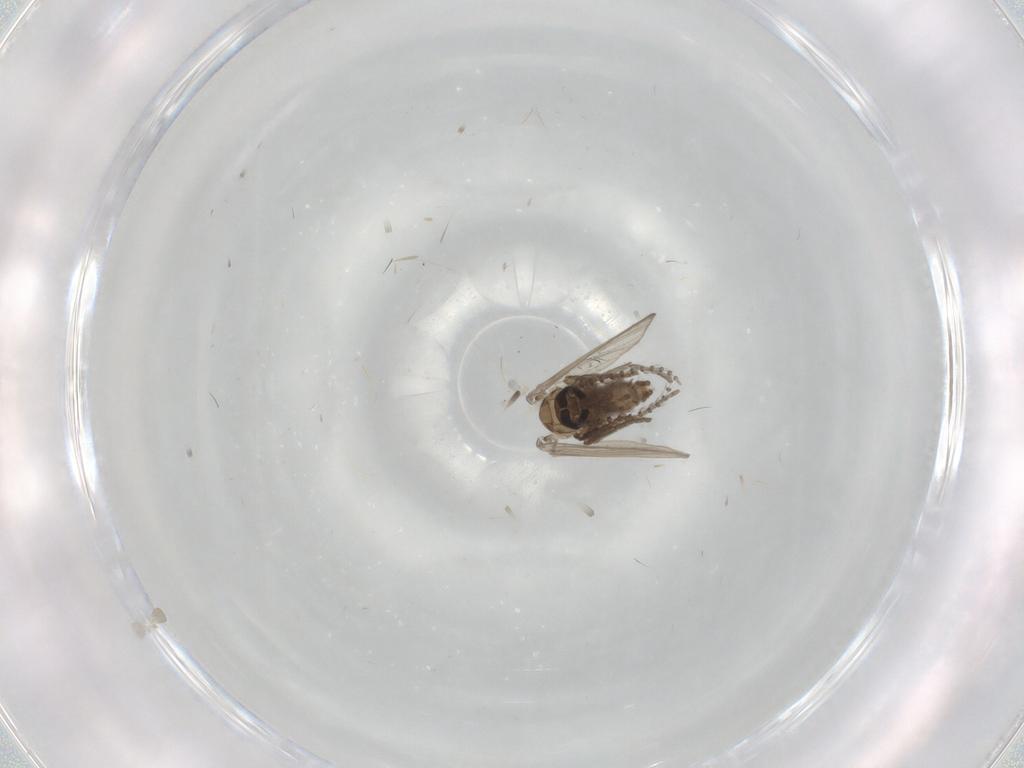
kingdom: Animalia
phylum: Arthropoda
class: Insecta
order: Diptera
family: Psychodidae
